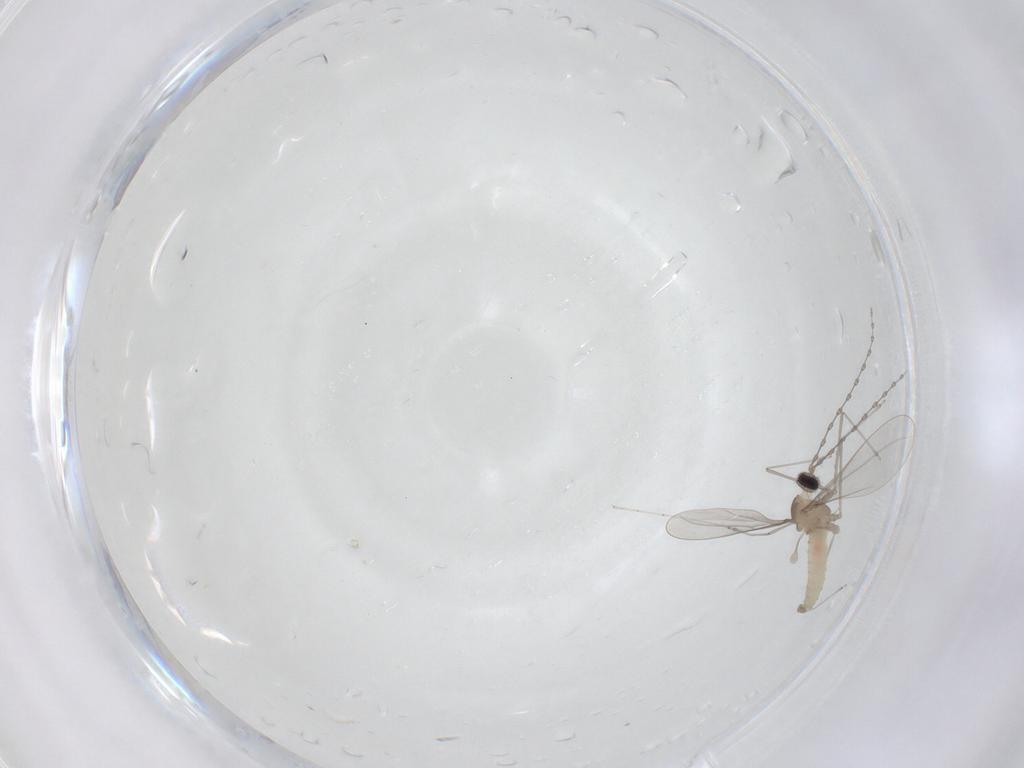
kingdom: Animalia
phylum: Arthropoda
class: Insecta
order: Diptera
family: Cecidomyiidae
